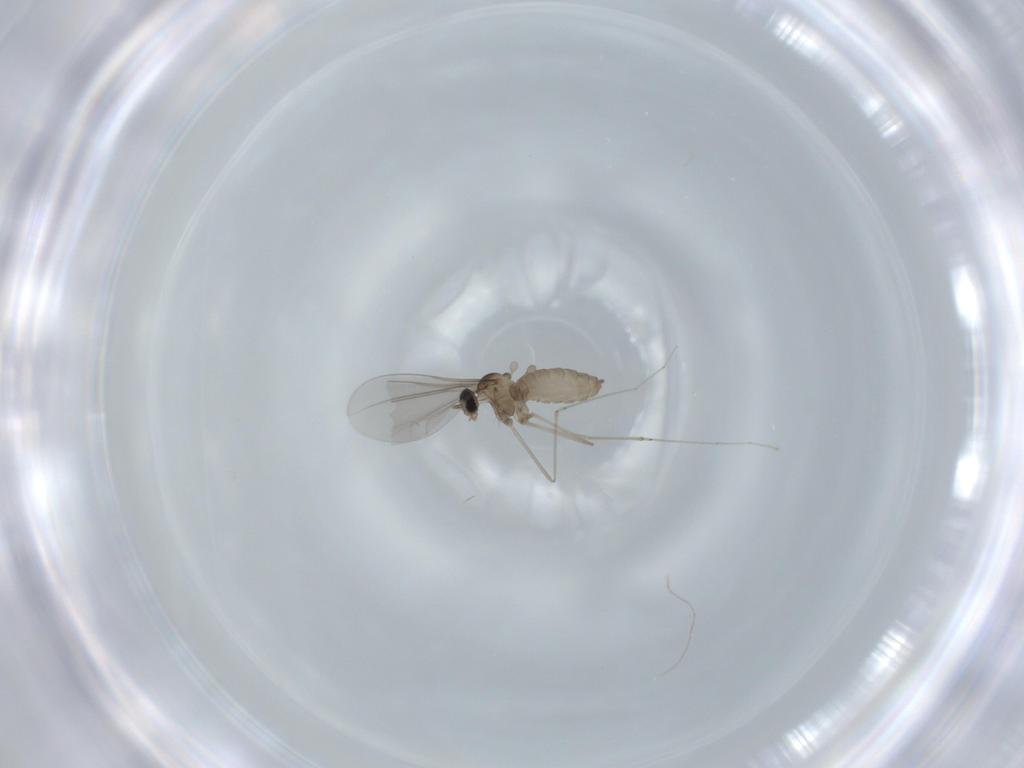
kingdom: Animalia
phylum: Arthropoda
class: Insecta
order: Diptera
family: Cecidomyiidae
